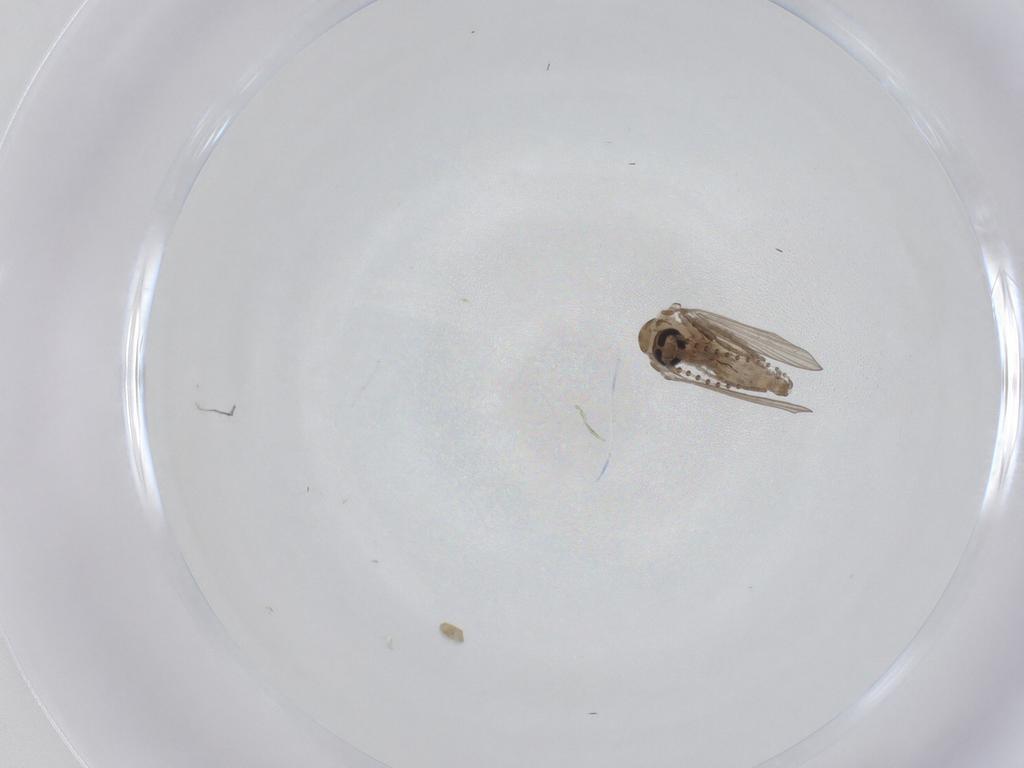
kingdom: Animalia
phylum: Arthropoda
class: Insecta
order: Diptera
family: Psychodidae
